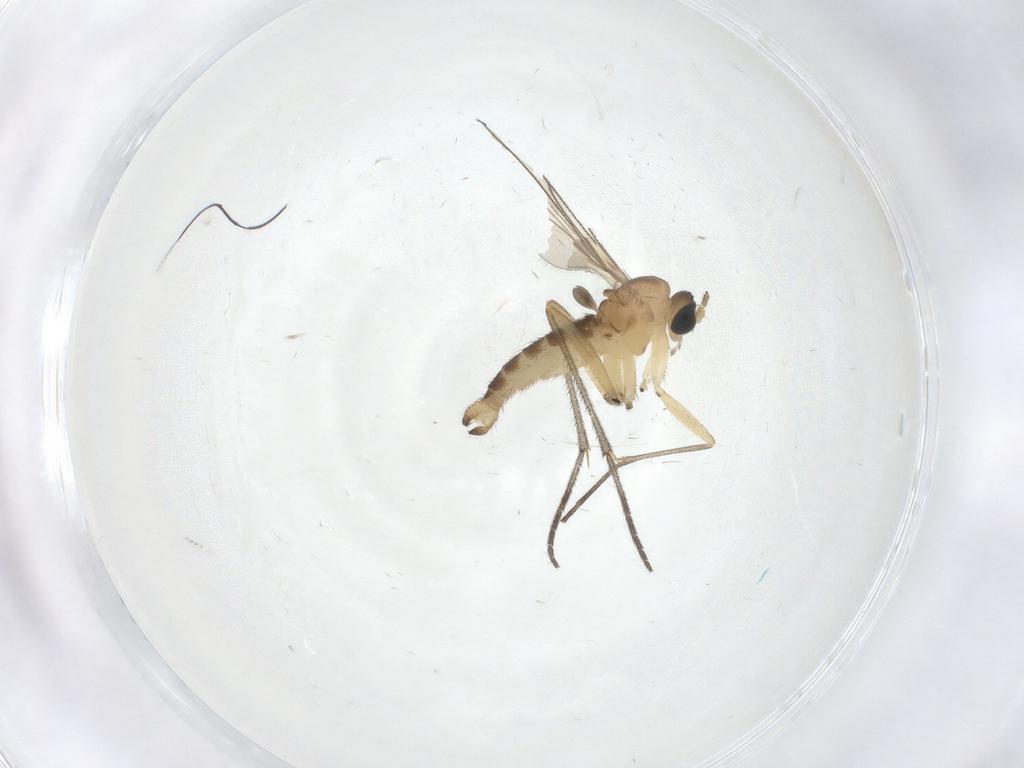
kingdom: Animalia
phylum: Arthropoda
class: Insecta
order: Diptera
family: Sciaridae
